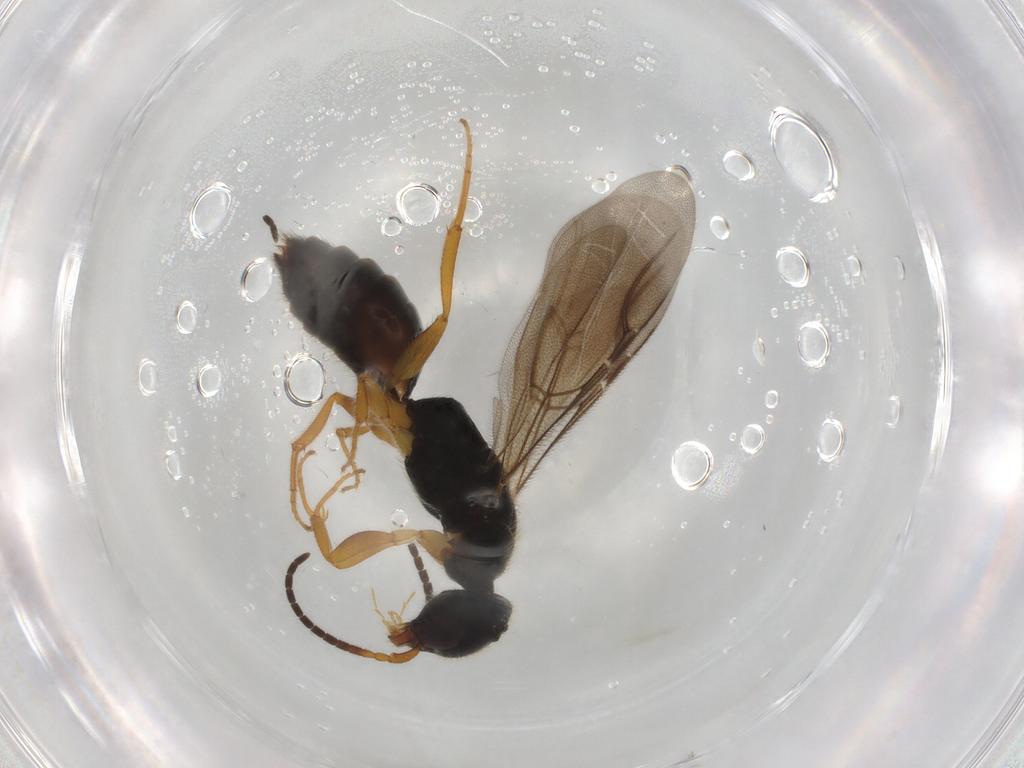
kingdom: Animalia
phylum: Arthropoda
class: Insecta
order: Hymenoptera
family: Bethylidae
